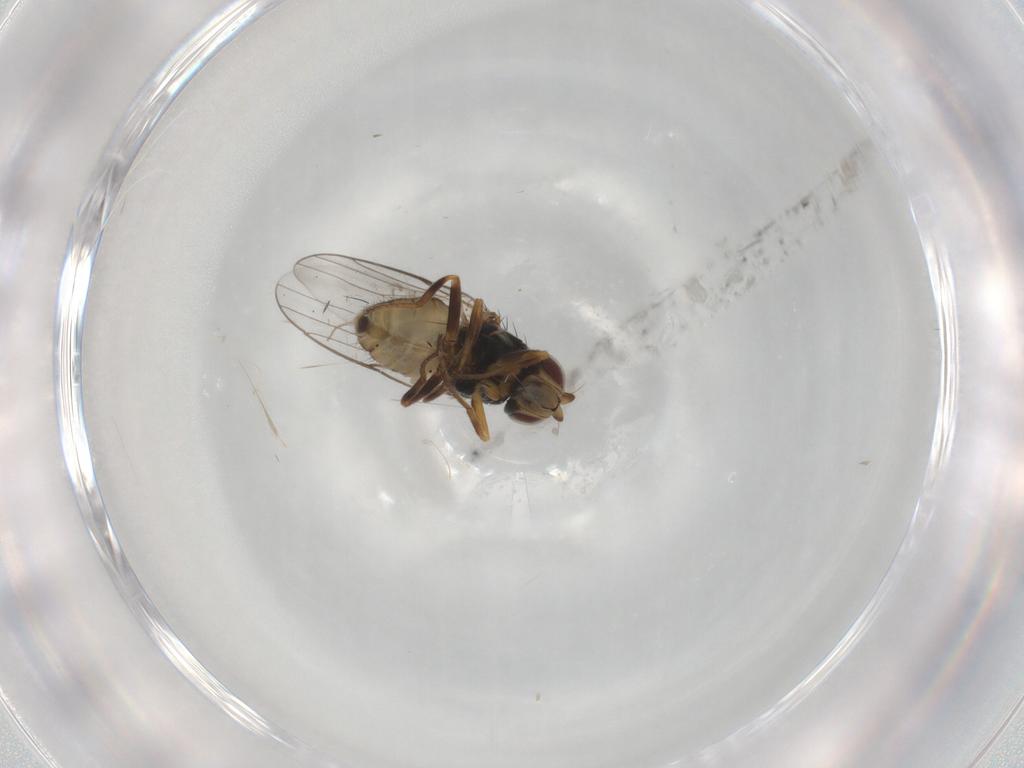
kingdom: Animalia
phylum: Arthropoda
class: Insecta
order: Diptera
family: Chloropidae
